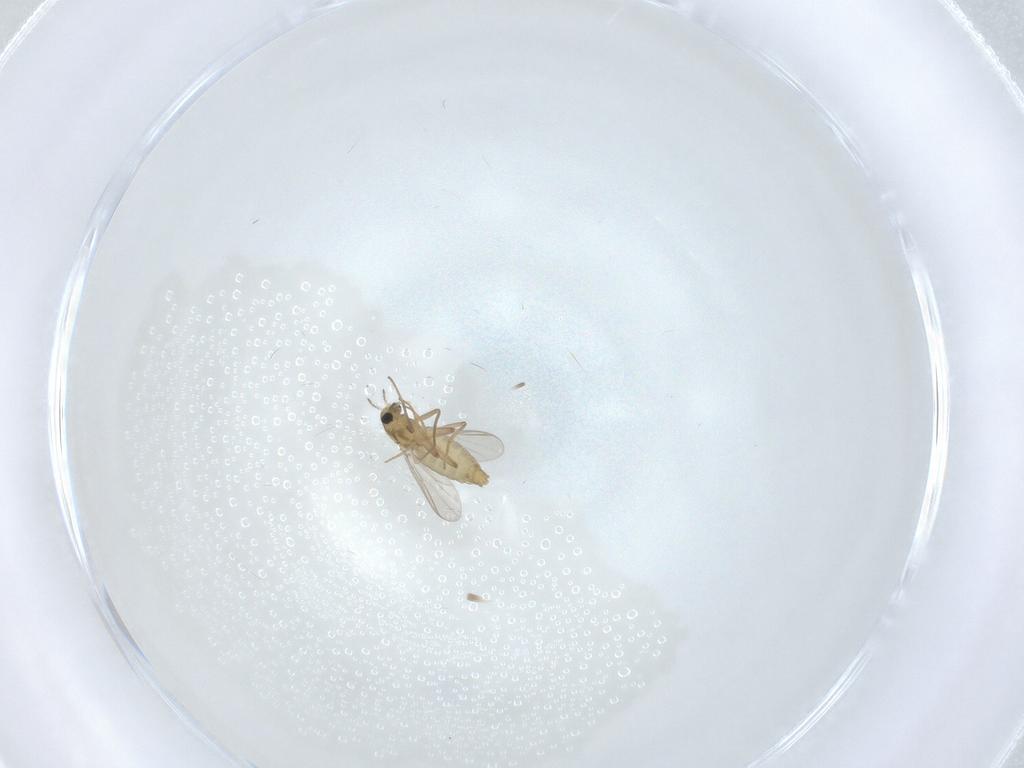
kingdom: Animalia
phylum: Arthropoda
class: Insecta
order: Diptera
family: Chironomidae
